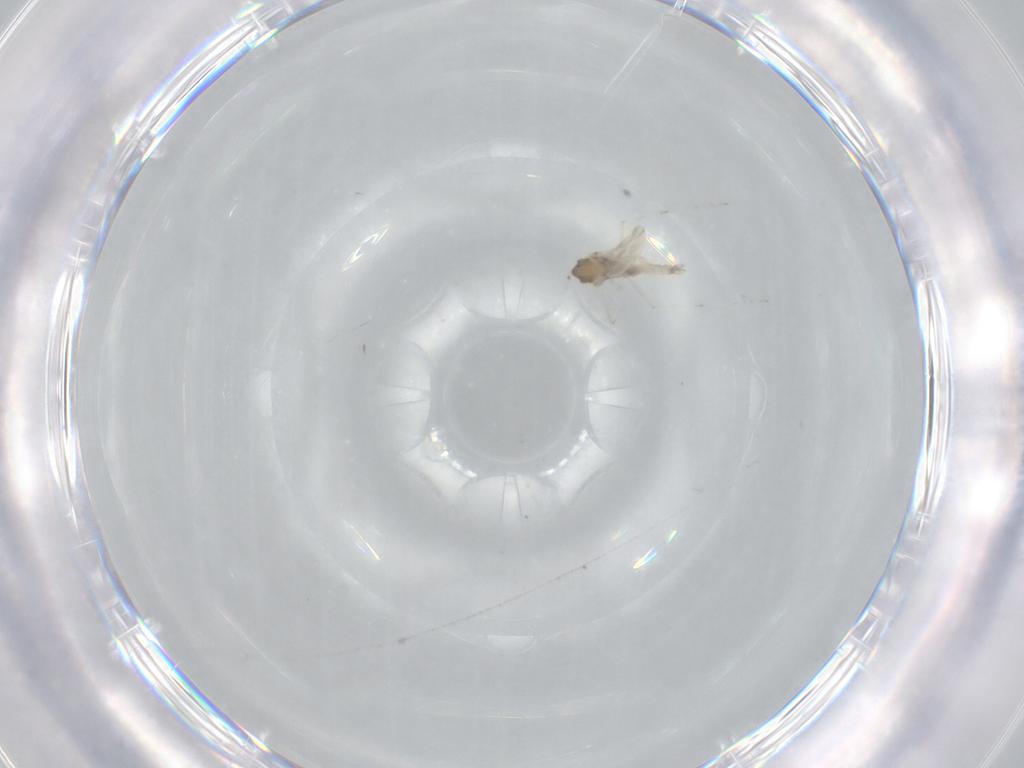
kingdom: Animalia
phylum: Arthropoda
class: Insecta
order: Diptera
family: Cecidomyiidae
